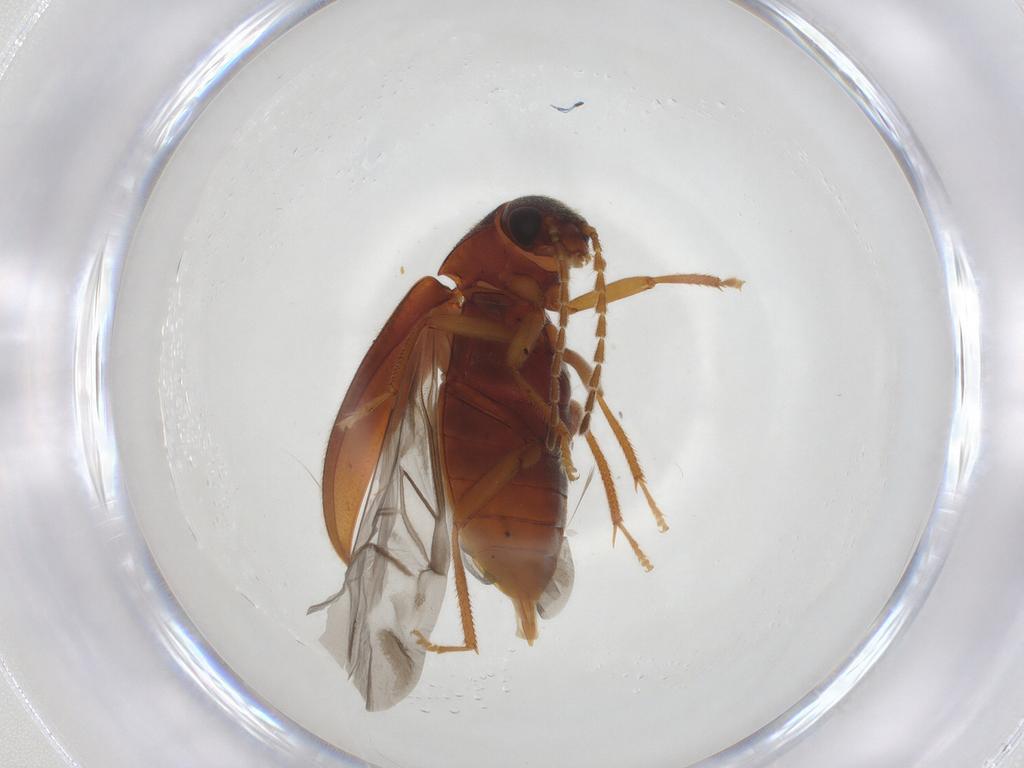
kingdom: Animalia
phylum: Arthropoda
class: Insecta
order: Coleoptera
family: Ptilodactylidae
